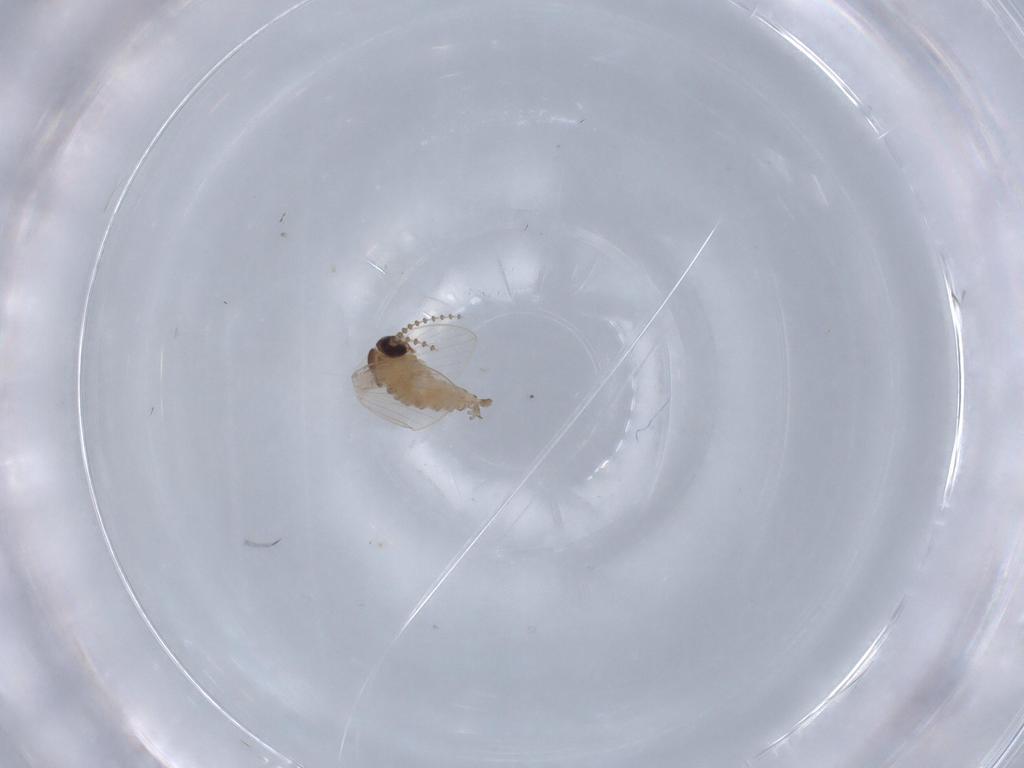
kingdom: Animalia
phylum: Arthropoda
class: Insecta
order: Diptera
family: Psychodidae
